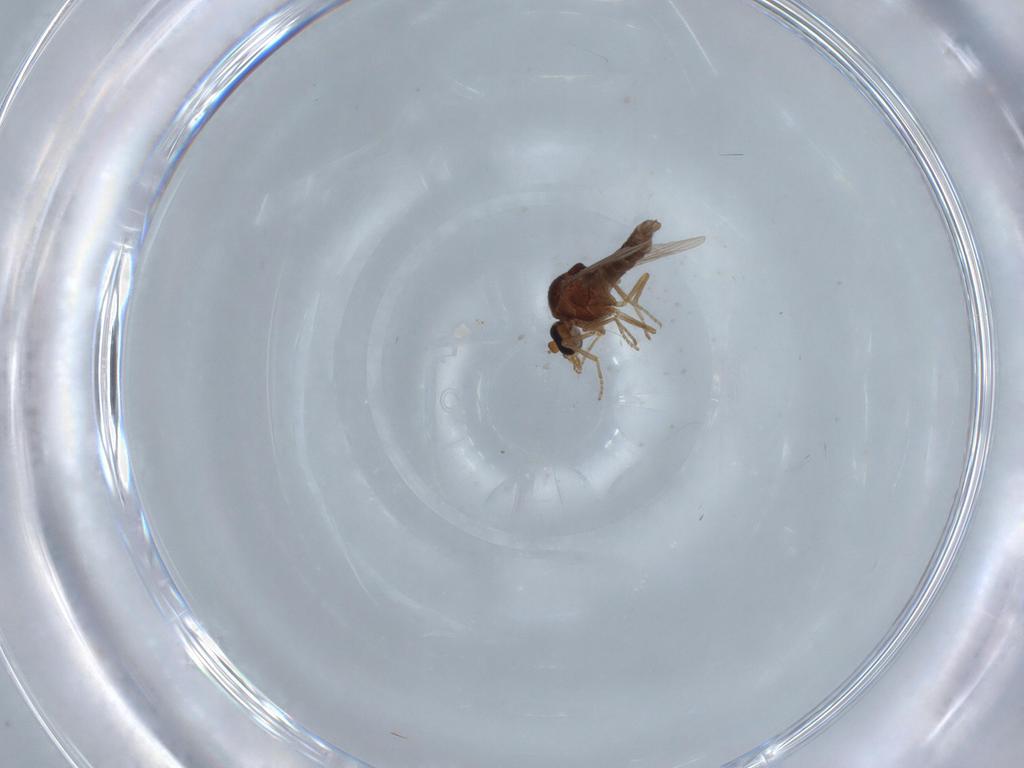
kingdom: Animalia
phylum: Arthropoda
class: Insecta
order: Diptera
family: Ceratopogonidae
